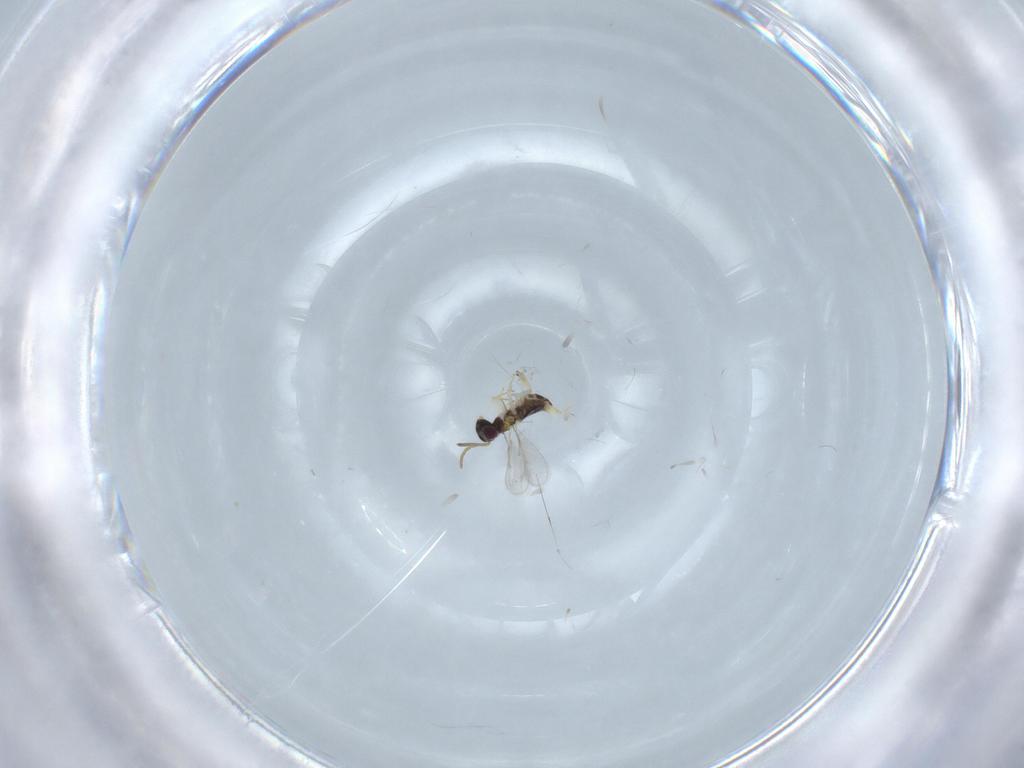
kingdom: Animalia
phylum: Arthropoda
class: Insecta
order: Hymenoptera
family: Aphelinidae
